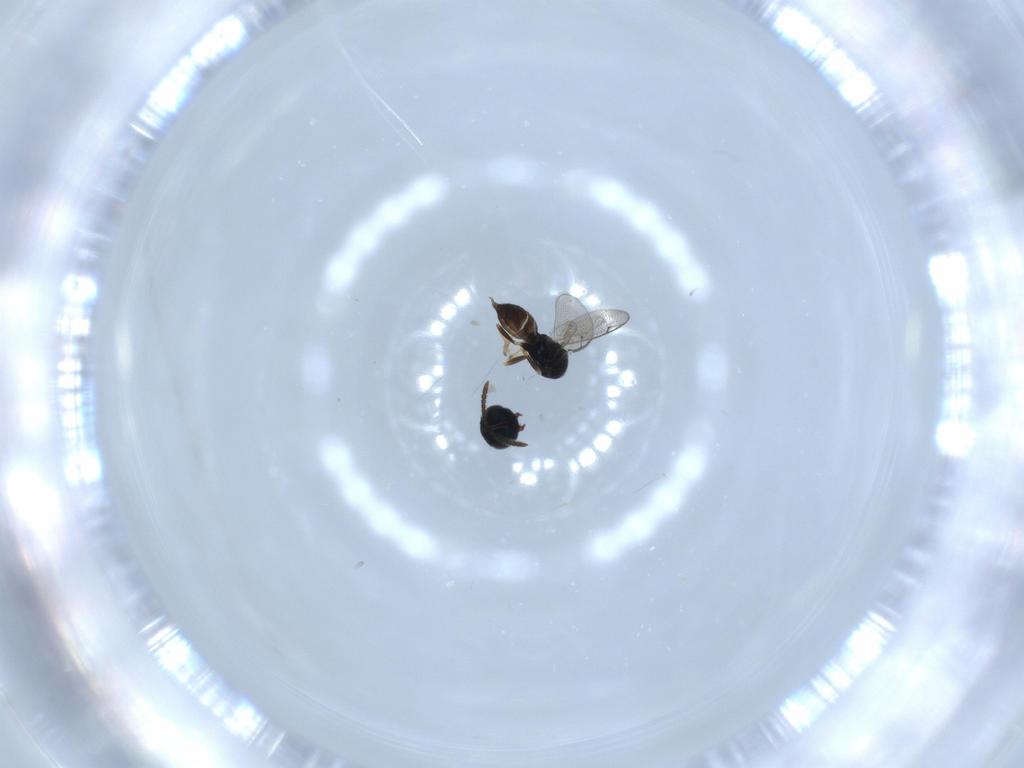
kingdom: Animalia
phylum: Arthropoda
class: Insecta
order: Hymenoptera
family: Pteromalidae
